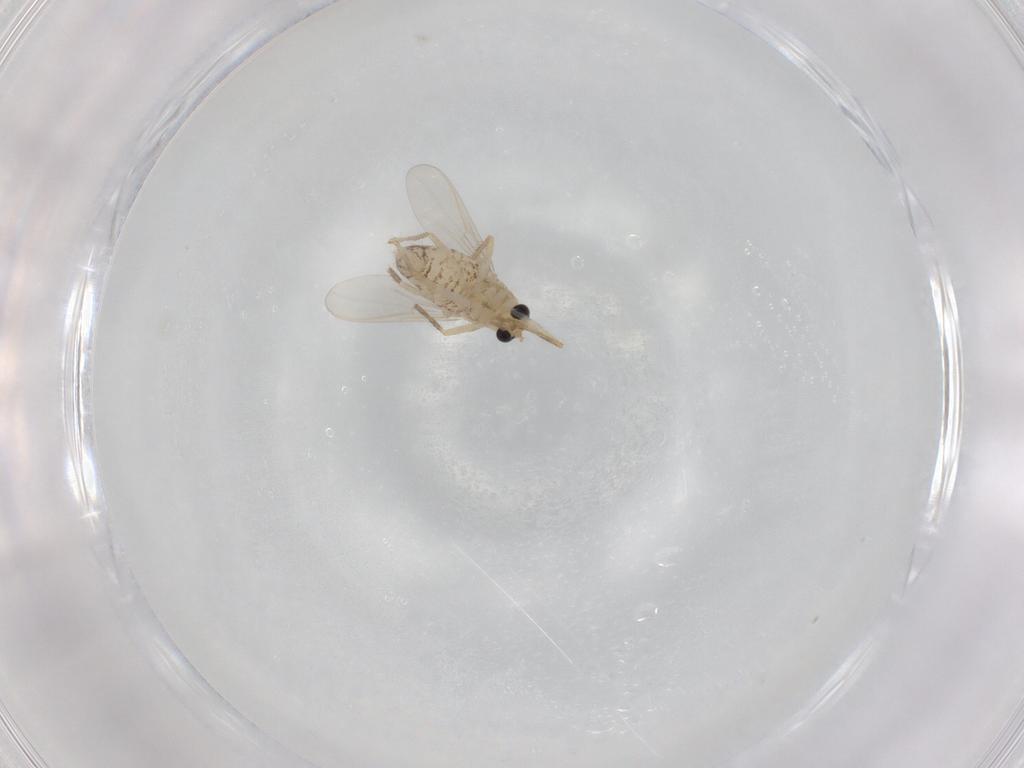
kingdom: Animalia
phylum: Arthropoda
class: Insecta
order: Diptera
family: Chironomidae
